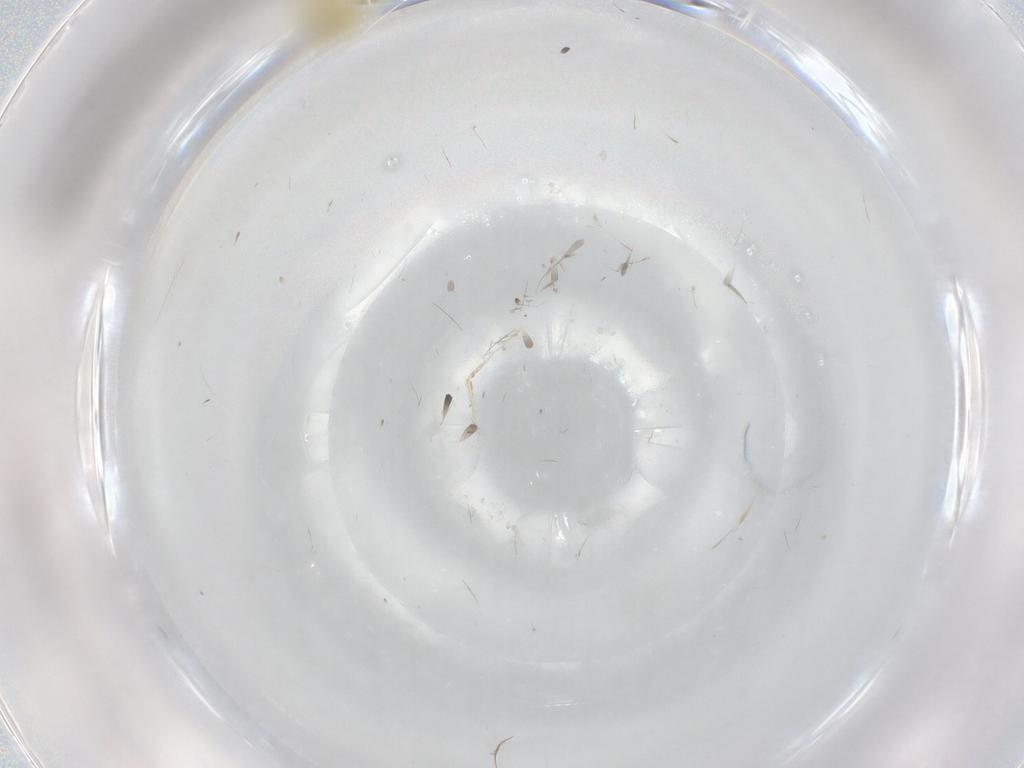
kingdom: Animalia
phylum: Arthropoda
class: Insecta
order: Hemiptera
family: Aleyrodidae
